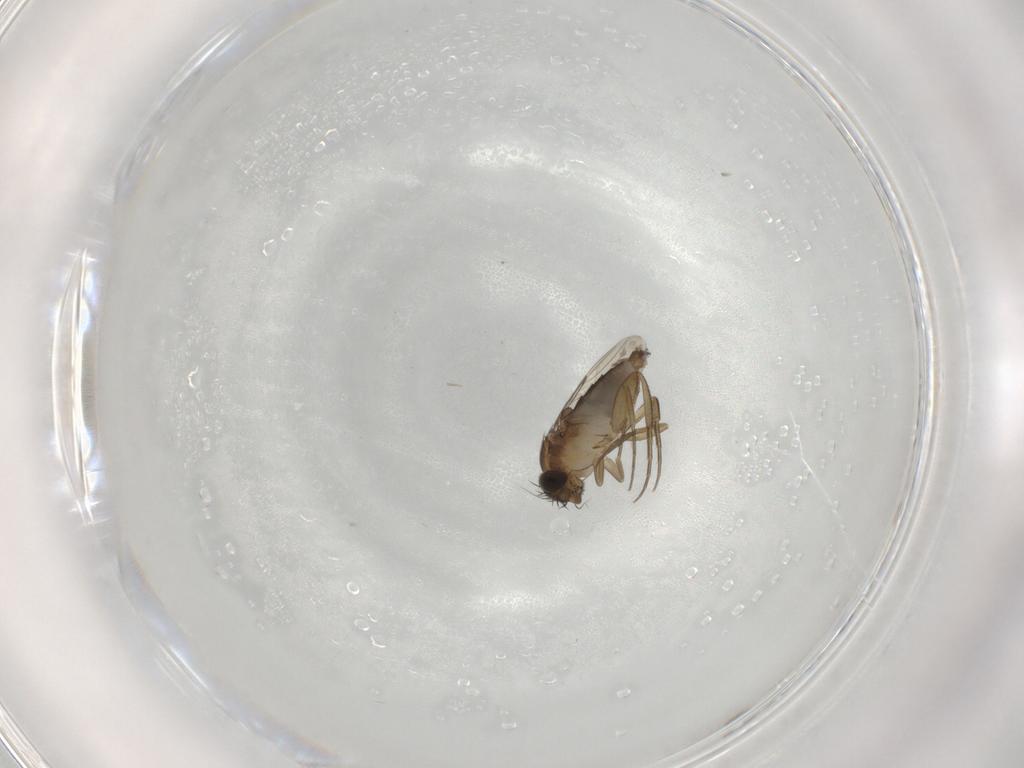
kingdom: Animalia
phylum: Arthropoda
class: Insecta
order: Diptera
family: Phoridae
